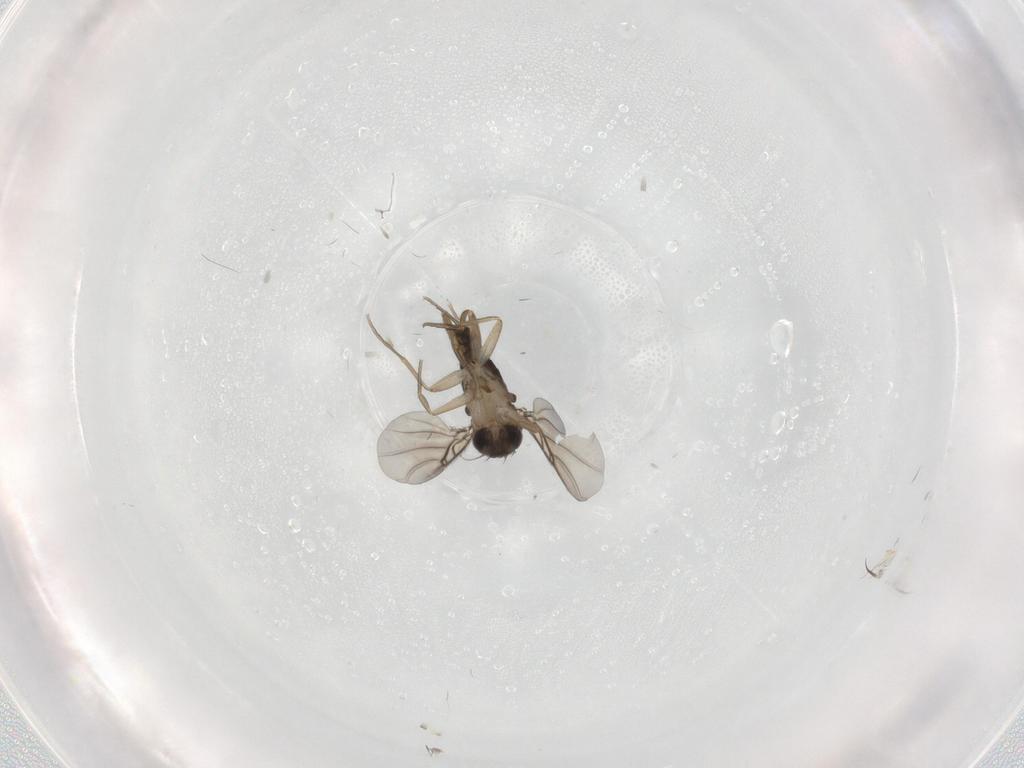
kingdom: Animalia
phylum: Arthropoda
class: Insecta
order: Diptera
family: Phoridae
